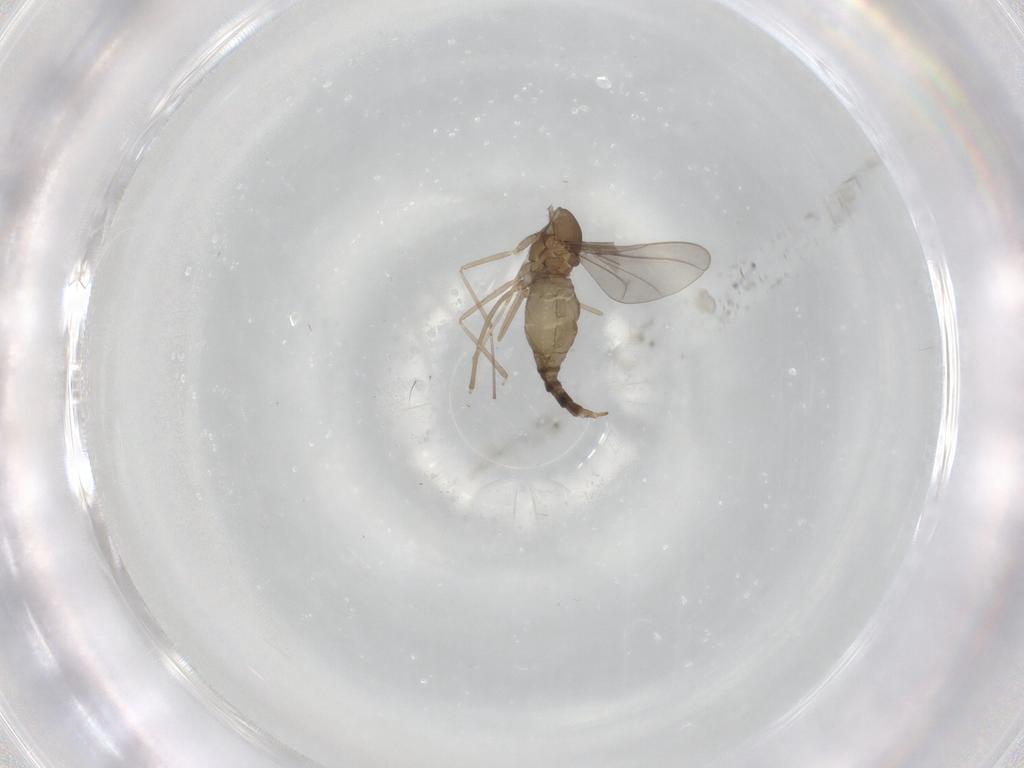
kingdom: Animalia
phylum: Arthropoda
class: Insecta
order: Diptera
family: Cecidomyiidae
